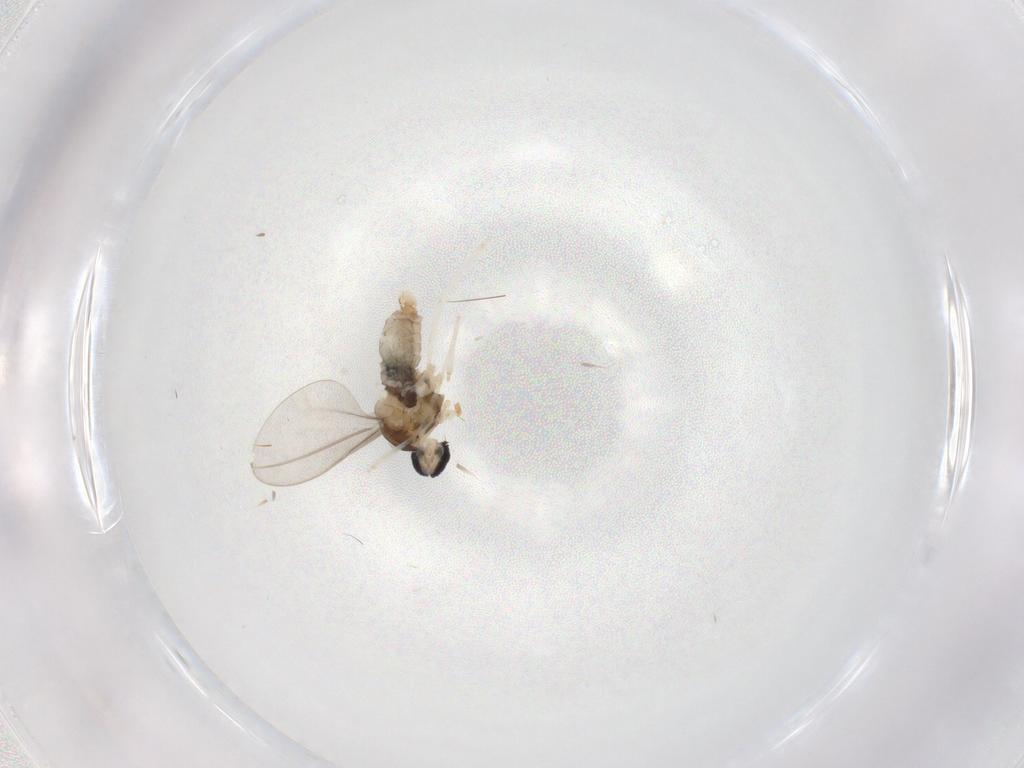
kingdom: Animalia
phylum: Arthropoda
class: Insecta
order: Diptera
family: Cecidomyiidae
